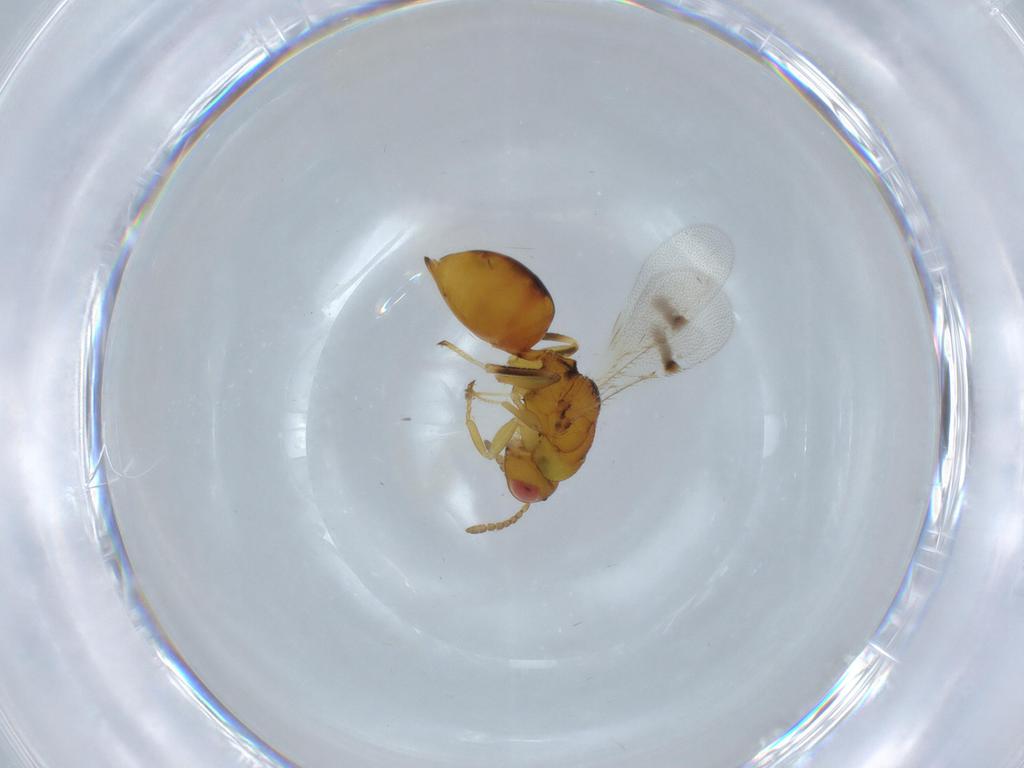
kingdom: Animalia
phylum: Arthropoda
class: Insecta
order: Hymenoptera
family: Eurytomidae
